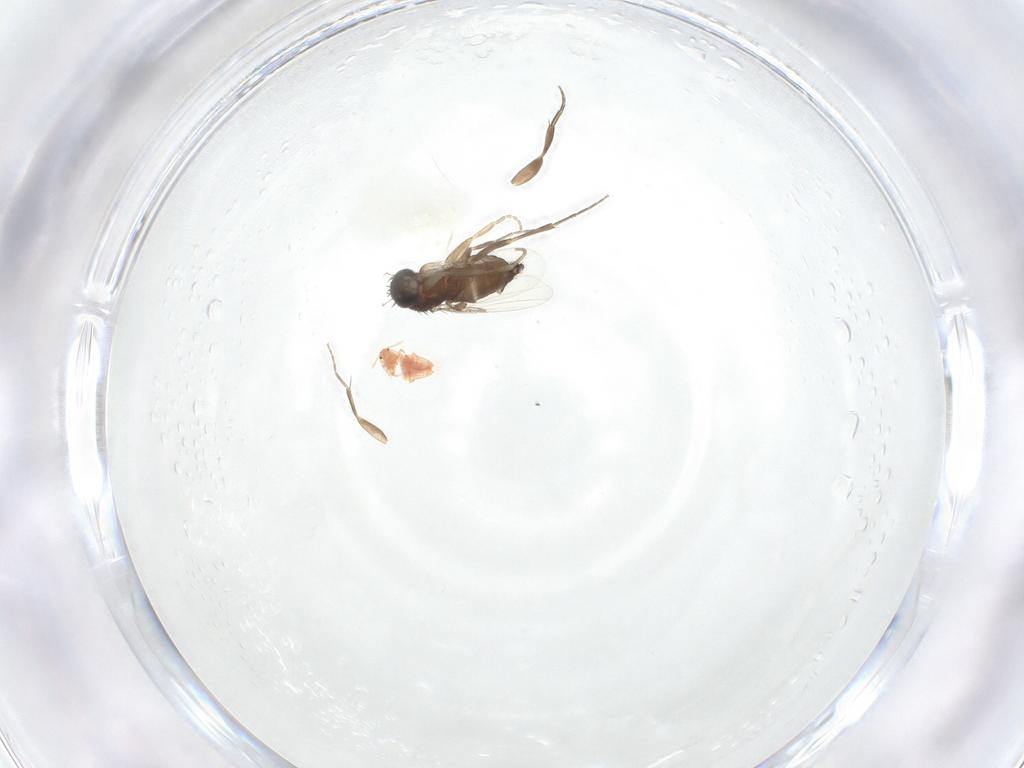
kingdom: Animalia
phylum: Arthropoda
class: Insecta
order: Diptera
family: Phoridae
